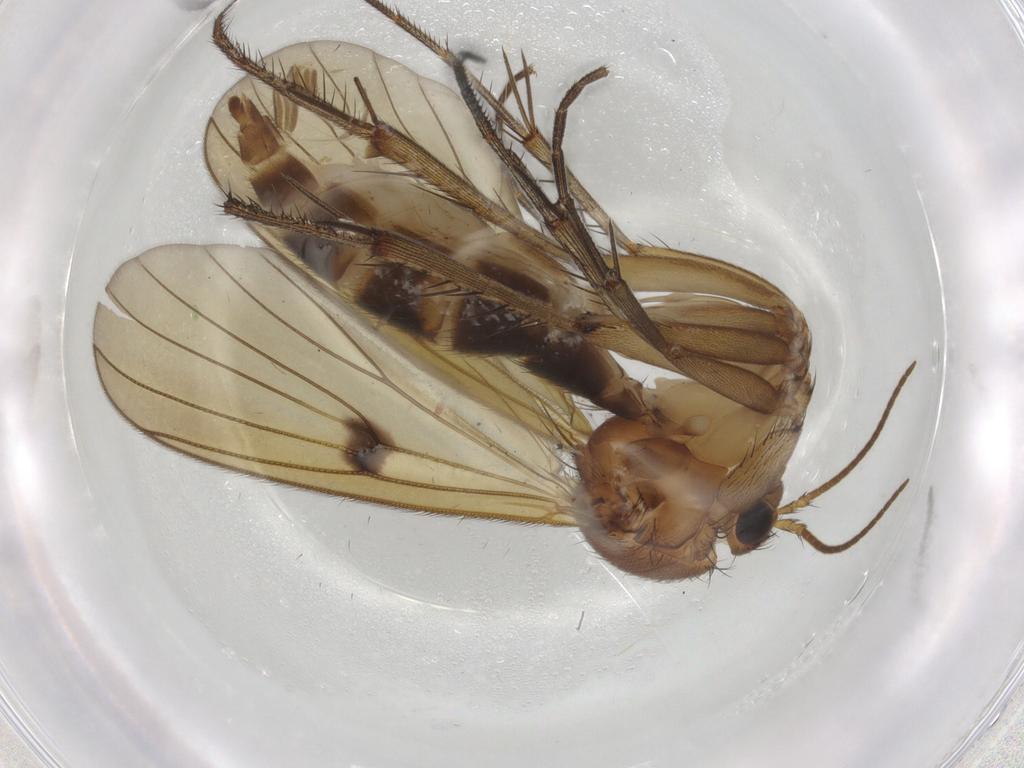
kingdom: Animalia
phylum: Arthropoda
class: Insecta
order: Diptera
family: Mycetophilidae
